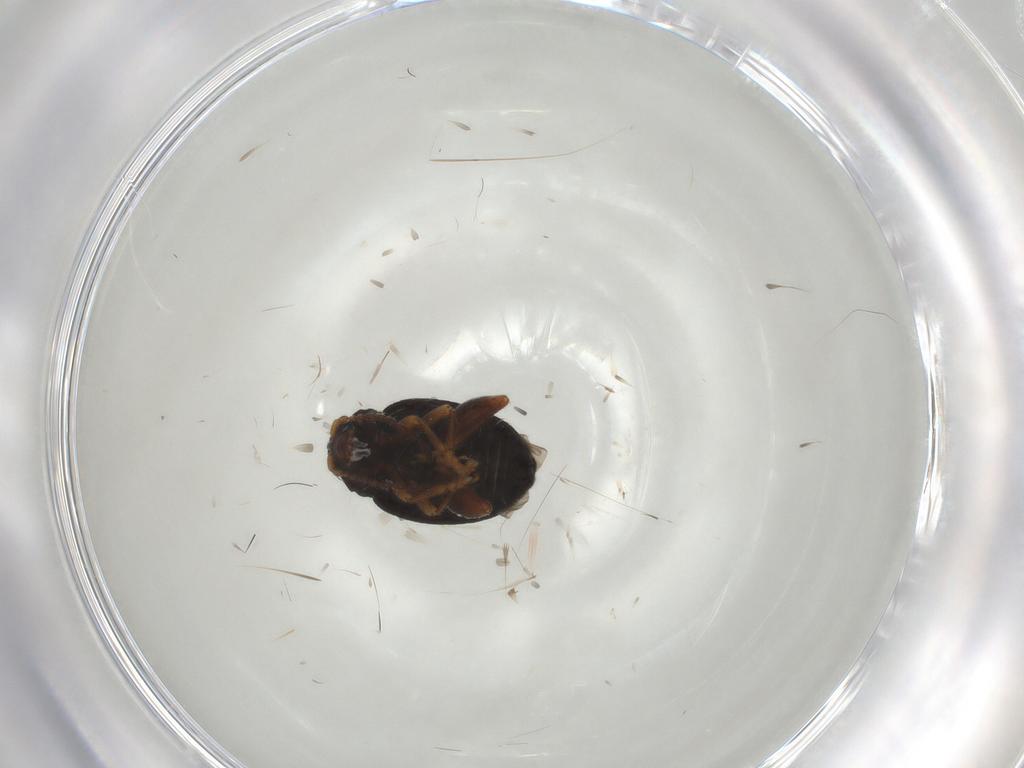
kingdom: Animalia
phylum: Arthropoda
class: Insecta
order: Coleoptera
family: Chrysomelidae
